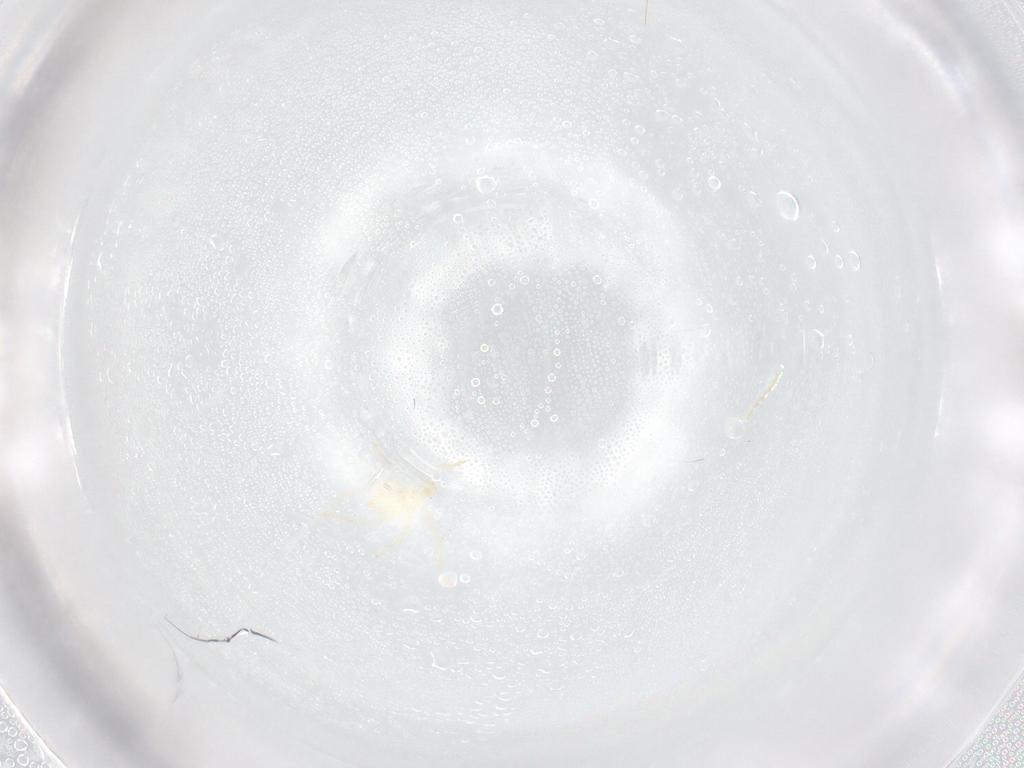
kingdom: Animalia
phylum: Arthropoda
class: Arachnida
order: Trombidiformes
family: Erythraeidae
